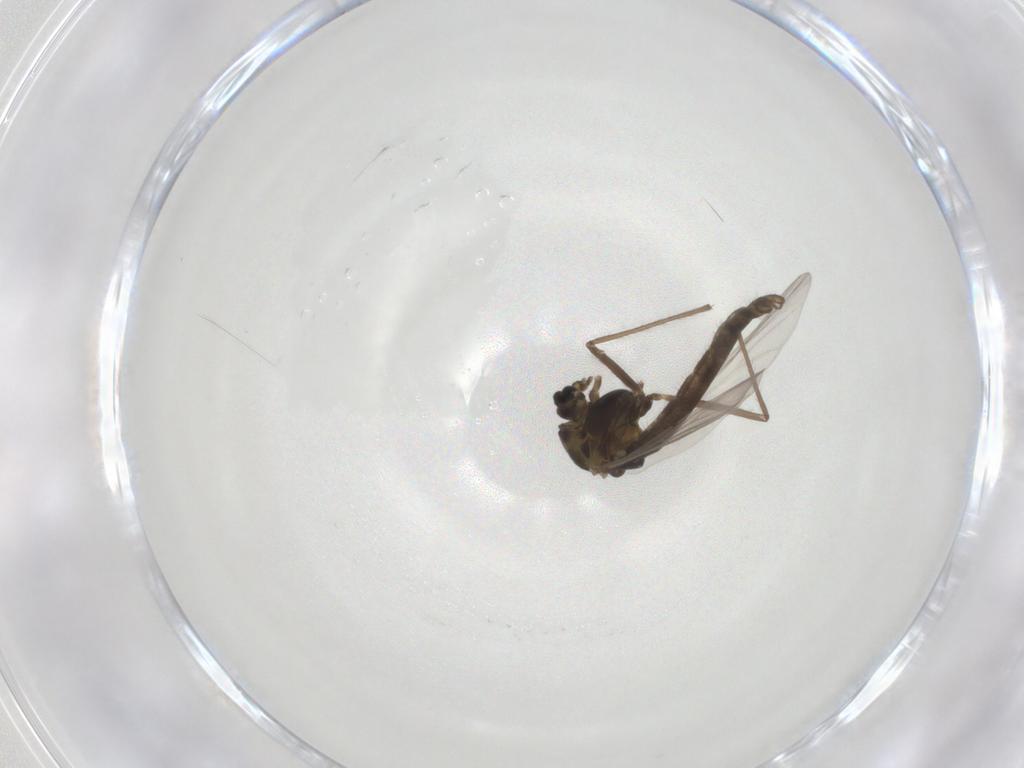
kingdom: Animalia
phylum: Arthropoda
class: Insecta
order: Diptera
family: Chironomidae
